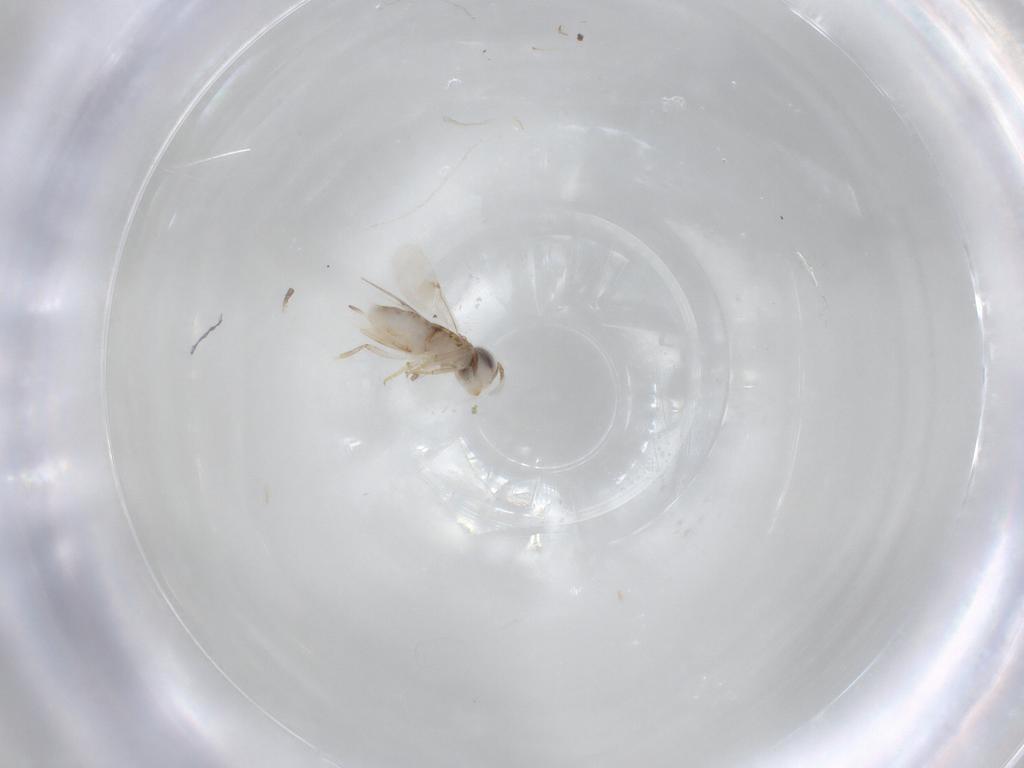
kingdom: Animalia
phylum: Arthropoda
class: Insecta
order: Hymenoptera
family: Encyrtidae
